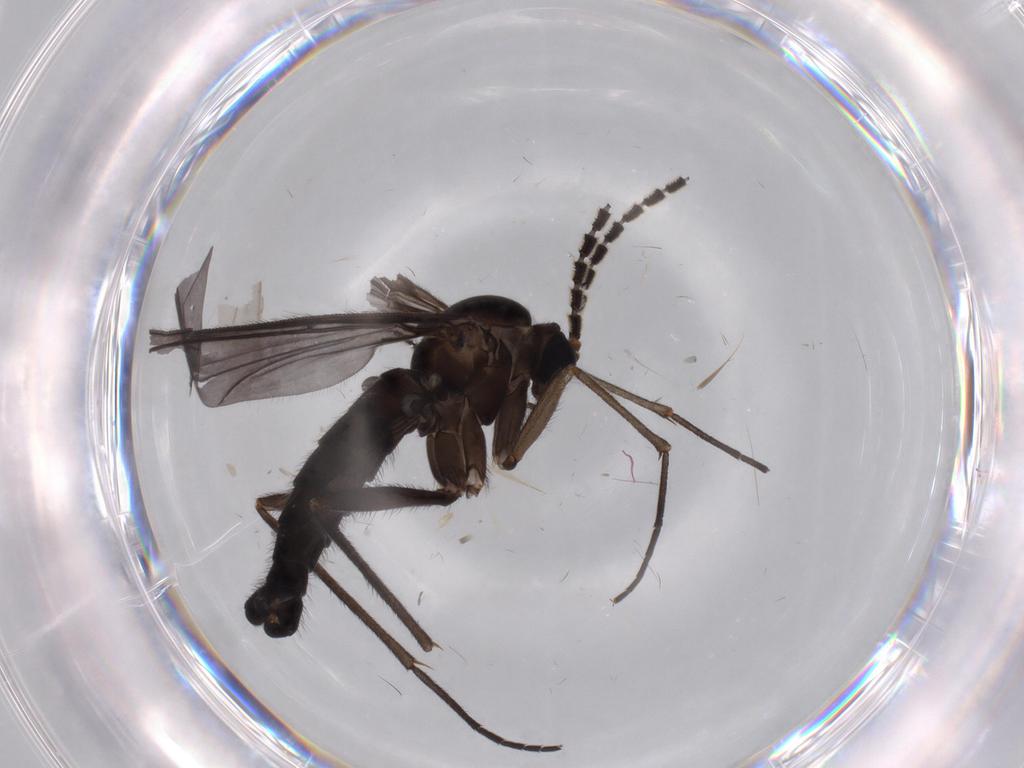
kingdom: Animalia
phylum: Arthropoda
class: Insecta
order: Diptera
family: Cecidomyiidae
